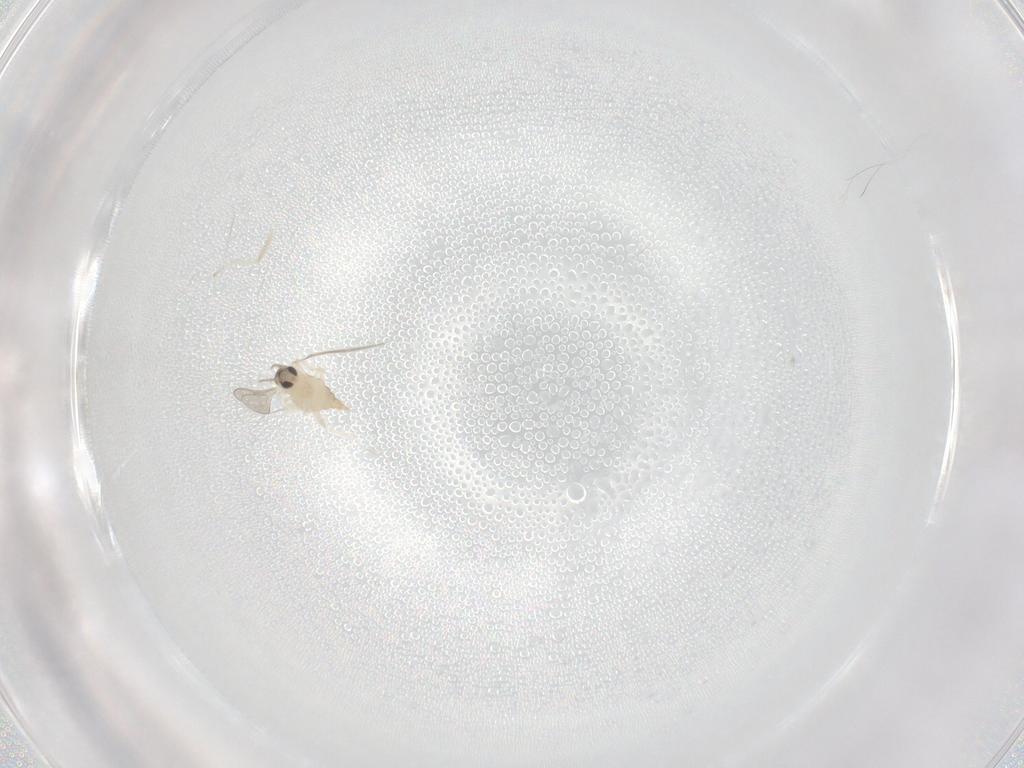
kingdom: Animalia
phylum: Arthropoda
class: Insecta
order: Diptera
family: Cecidomyiidae
